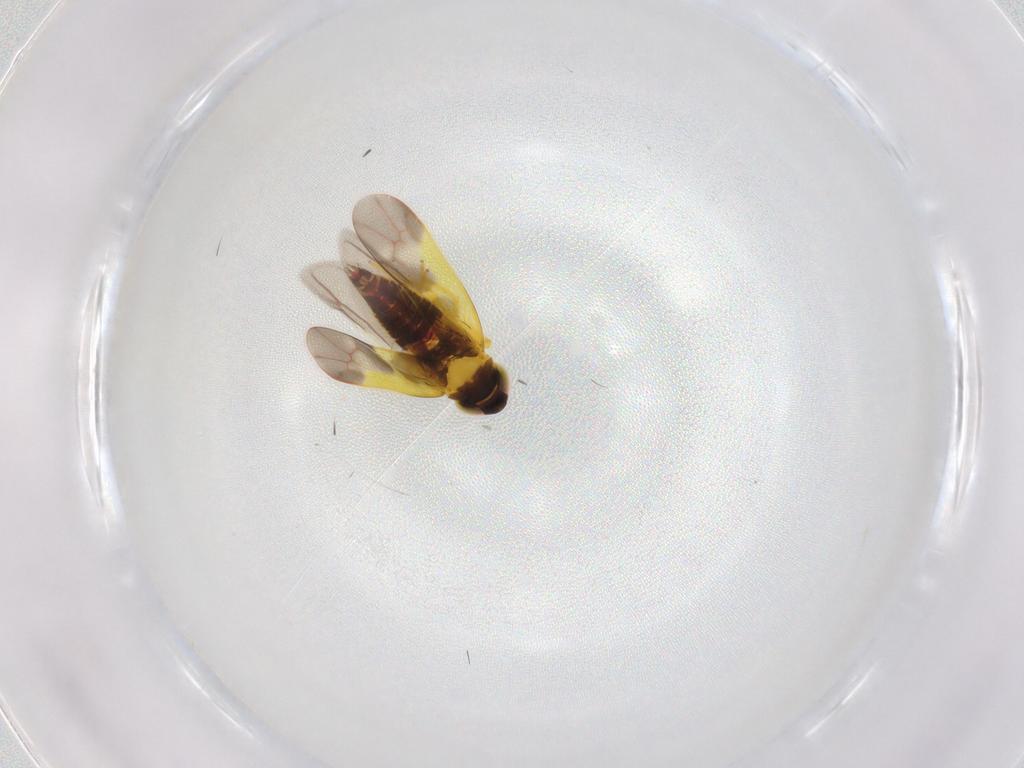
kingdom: Animalia
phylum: Arthropoda
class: Insecta
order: Hemiptera
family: Cicadellidae
